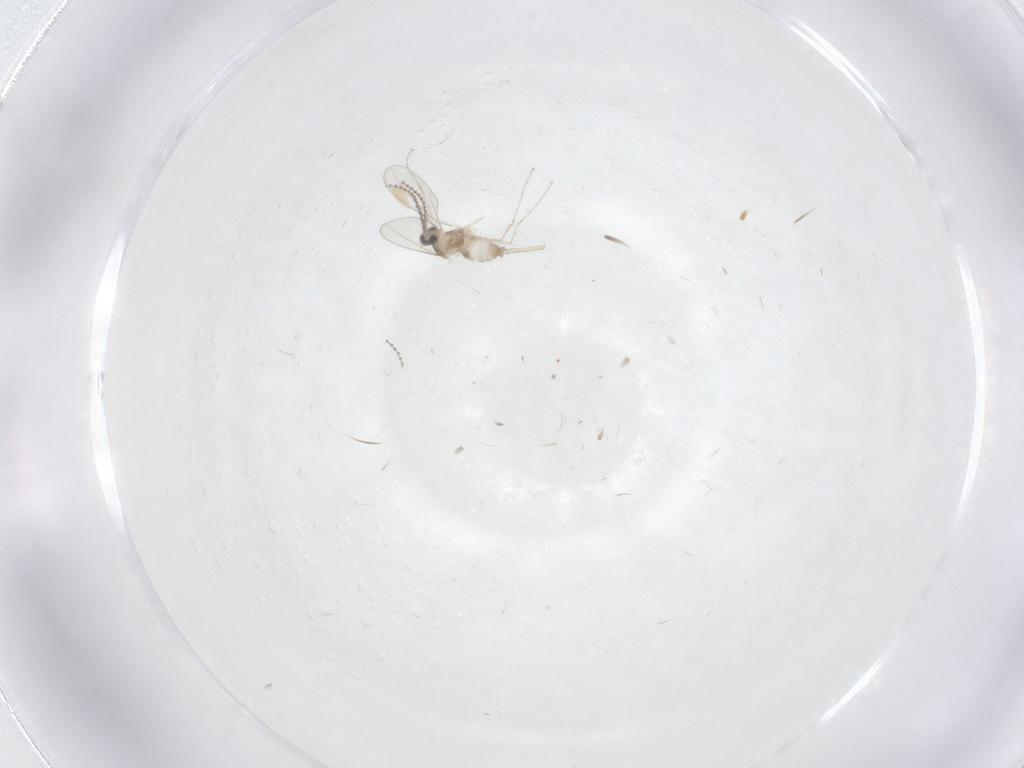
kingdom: Animalia
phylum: Arthropoda
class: Insecta
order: Diptera
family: Cecidomyiidae
